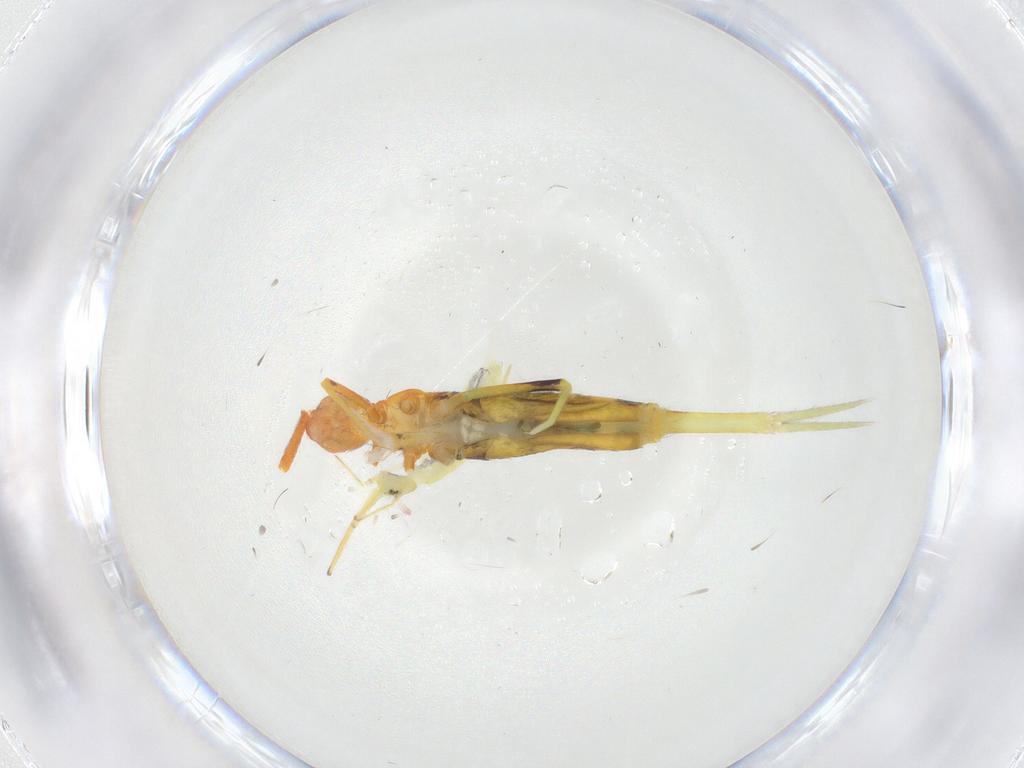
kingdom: Animalia
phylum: Arthropoda
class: Collembola
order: Entomobryomorpha
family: Entomobryidae
